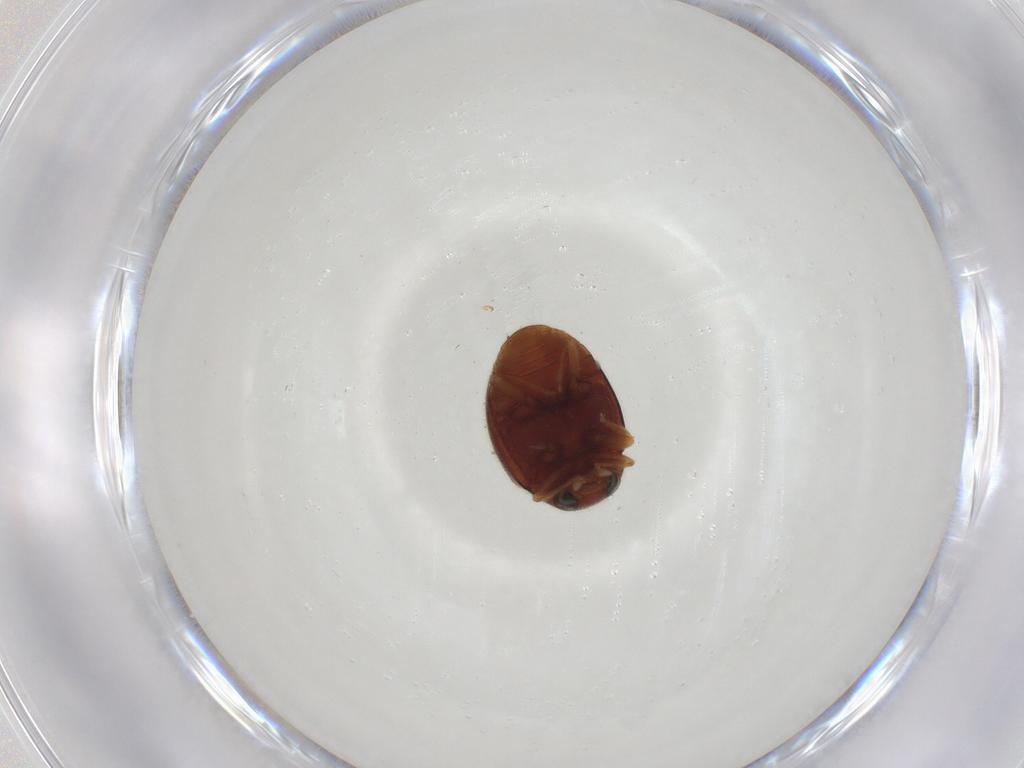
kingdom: Animalia
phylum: Arthropoda
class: Insecta
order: Coleoptera
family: Coccinellidae
